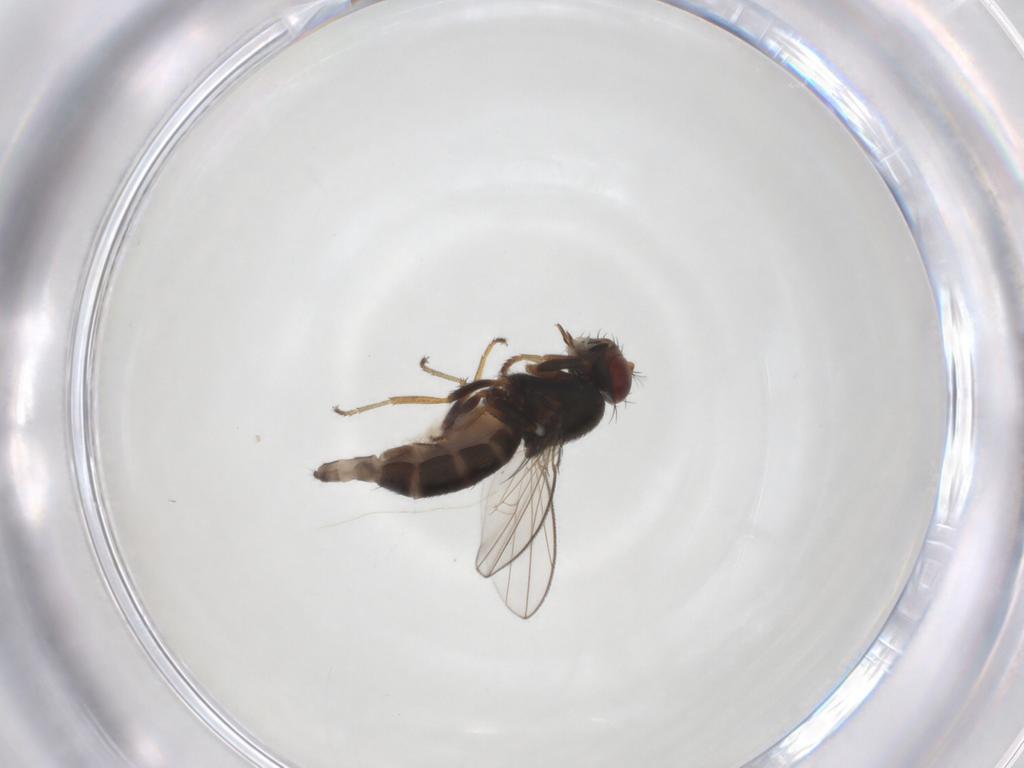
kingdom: Animalia
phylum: Arthropoda
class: Insecta
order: Diptera
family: Ephydridae
